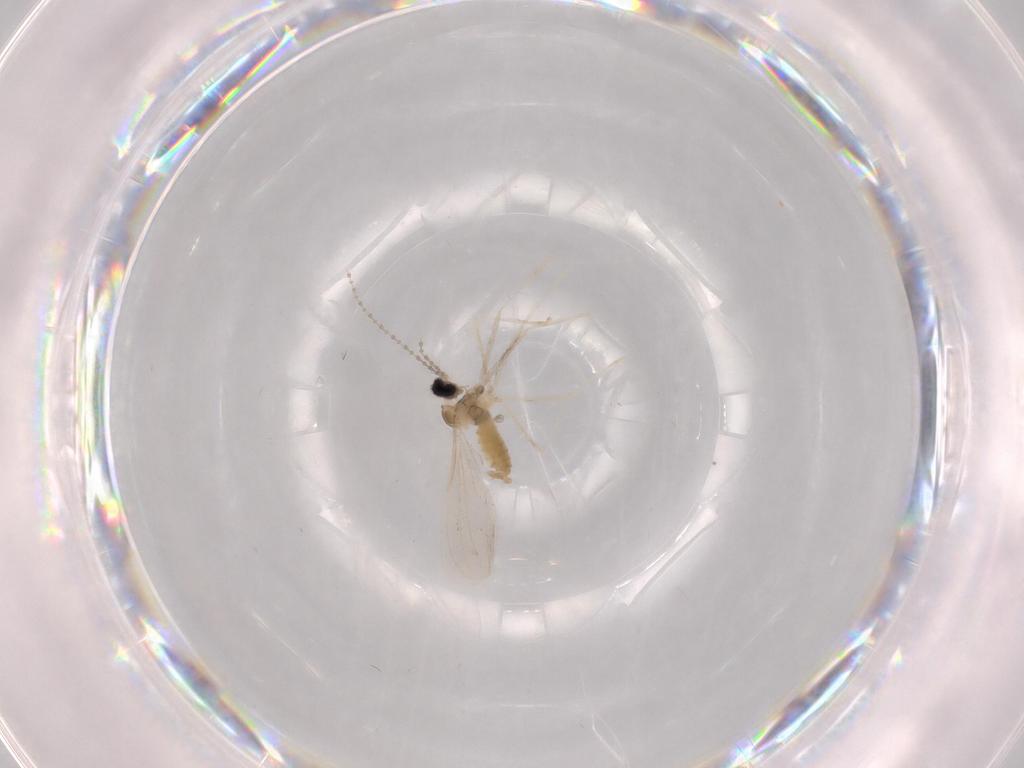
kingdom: Animalia
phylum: Arthropoda
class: Insecta
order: Diptera
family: Cecidomyiidae
